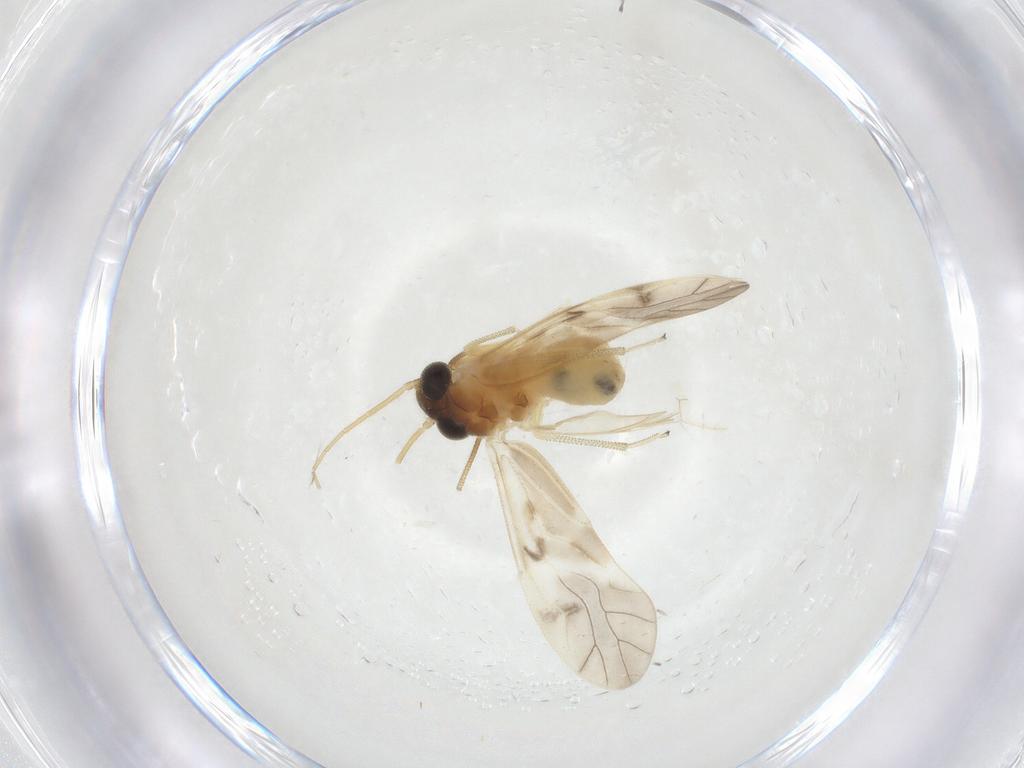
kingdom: Animalia
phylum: Arthropoda
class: Insecta
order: Psocodea
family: Caeciliusidae
